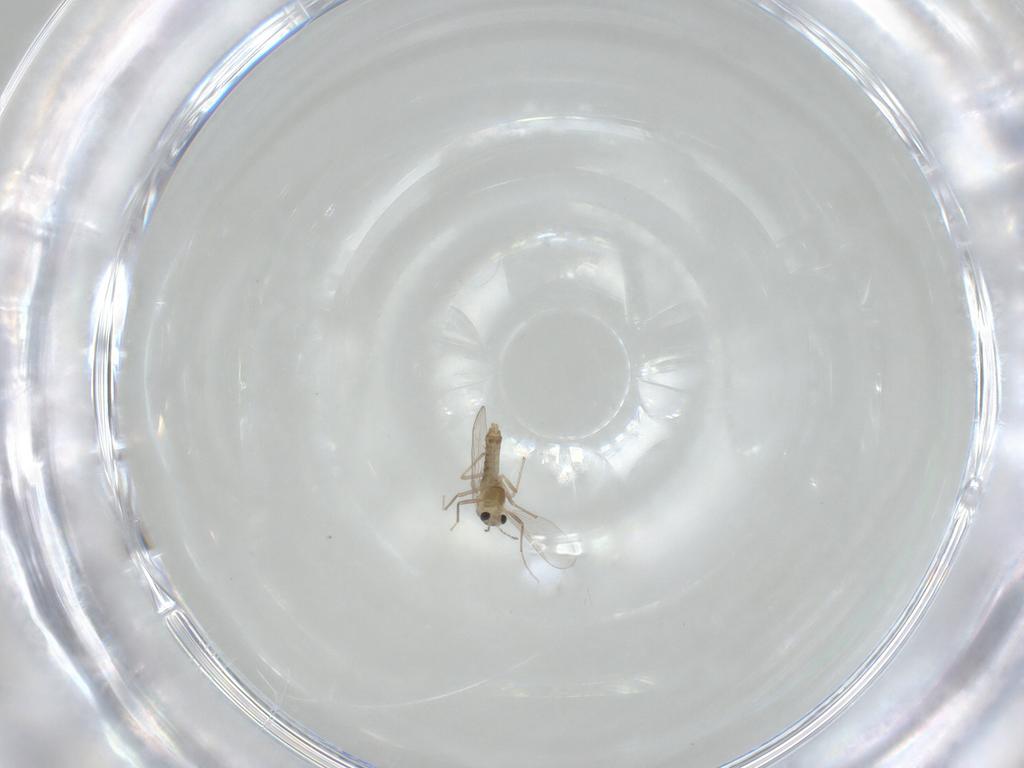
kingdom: Animalia
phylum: Arthropoda
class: Insecta
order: Diptera
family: Chironomidae
